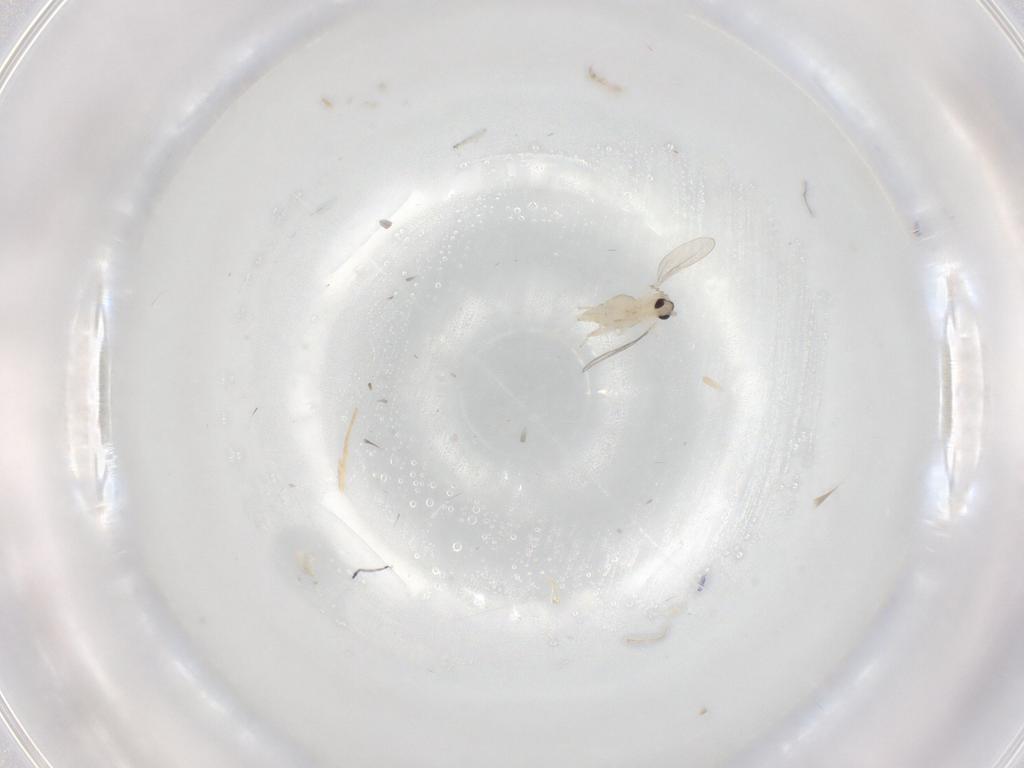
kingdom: Animalia
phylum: Arthropoda
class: Insecta
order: Diptera
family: Cecidomyiidae
